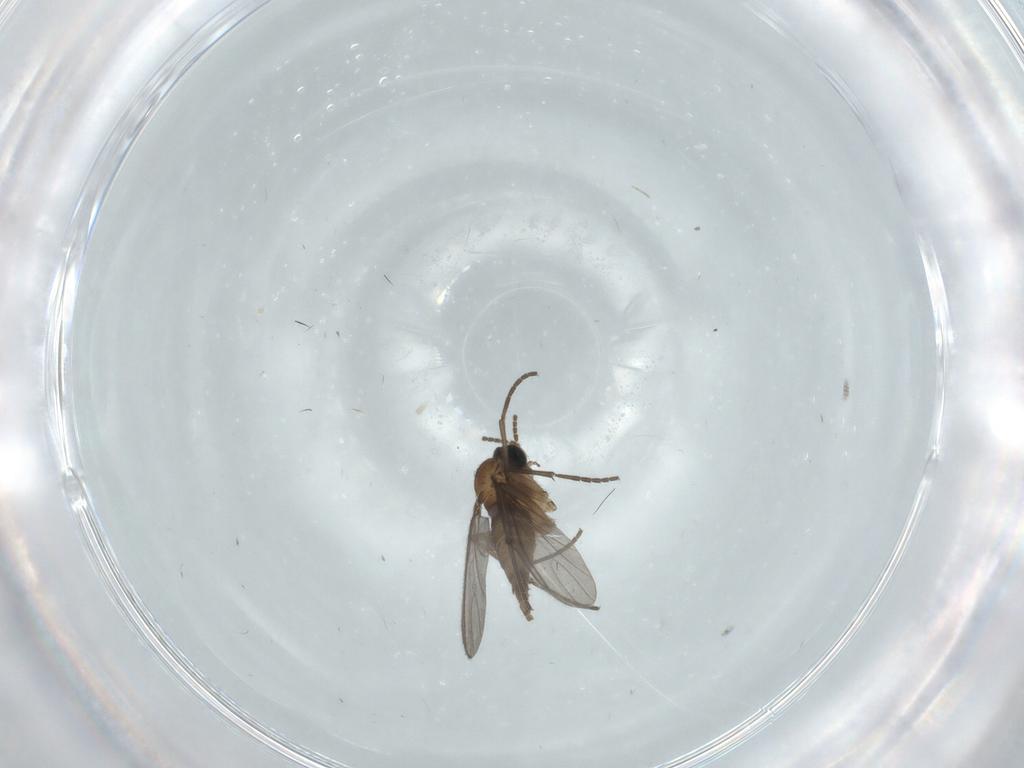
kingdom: Animalia
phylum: Arthropoda
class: Insecta
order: Diptera
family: Sciaridae
